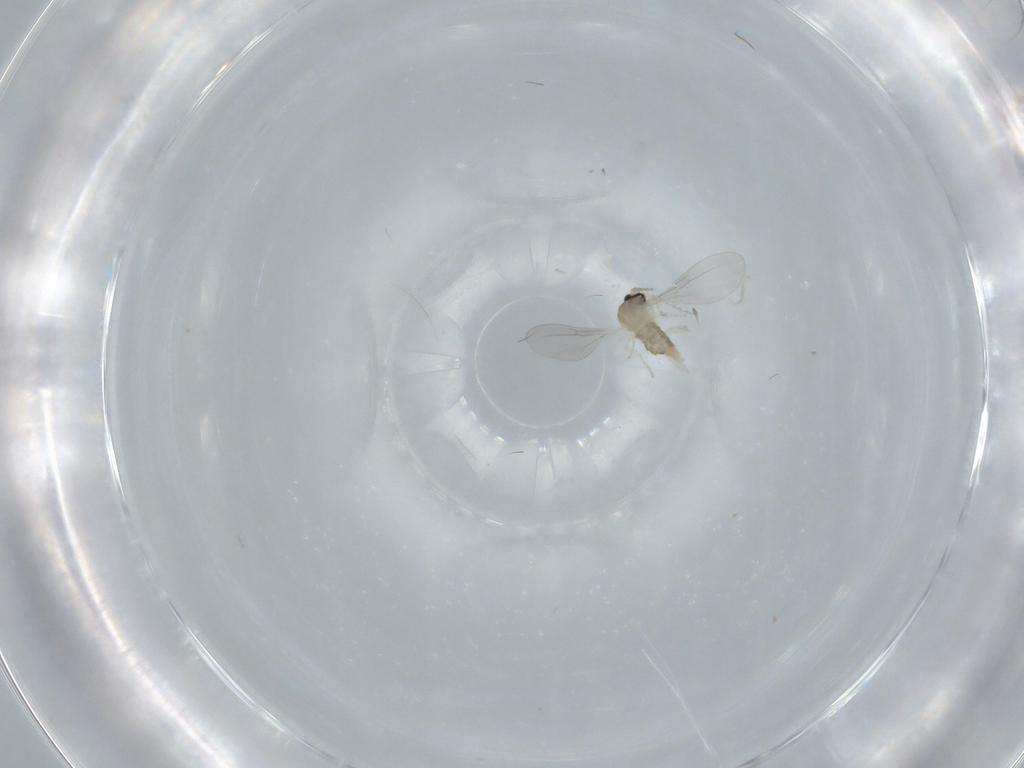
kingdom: Animalia
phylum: Arthropoda
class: Insecta
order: Diptera
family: Cecidomyiidae
